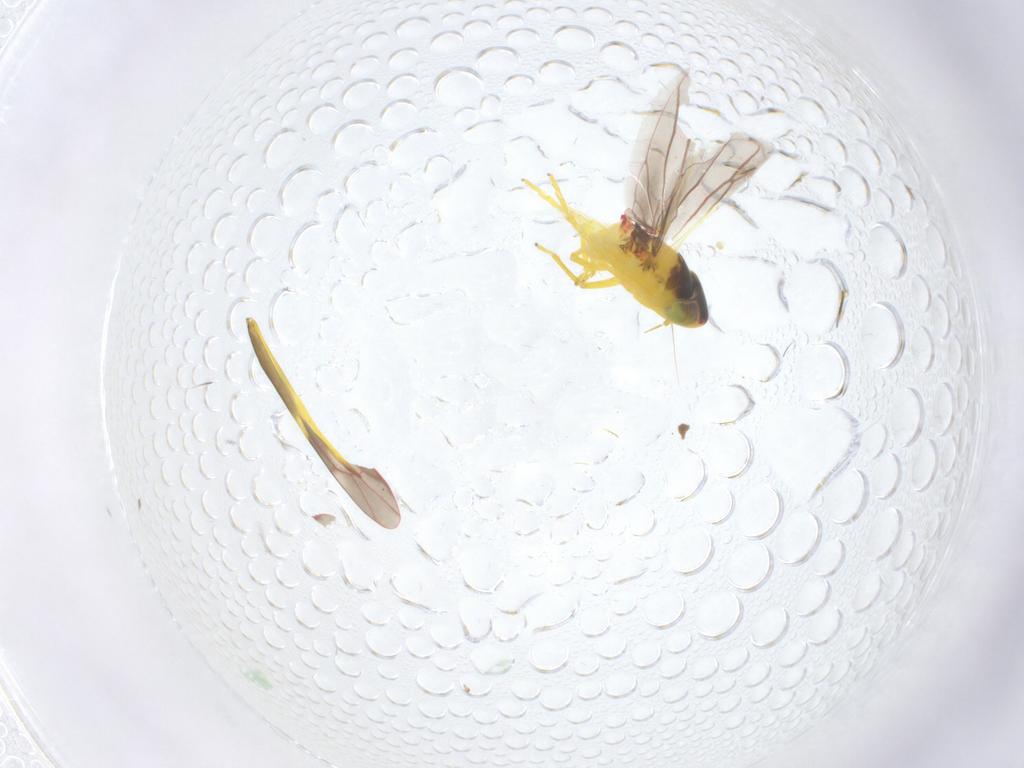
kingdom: Animalia
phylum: Arthropoda
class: Insecta
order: Hemiptera
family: Cicadellidae
